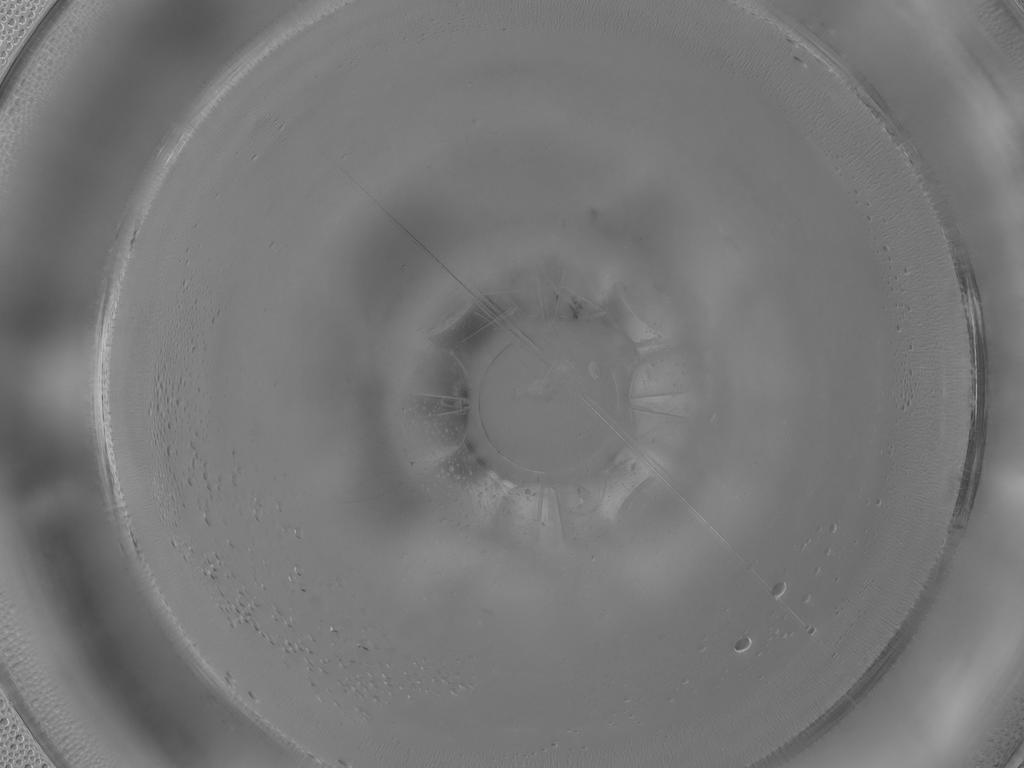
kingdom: Animalia
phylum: Arthropoda
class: Insecta
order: Diptera
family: Cecidomyiidae
